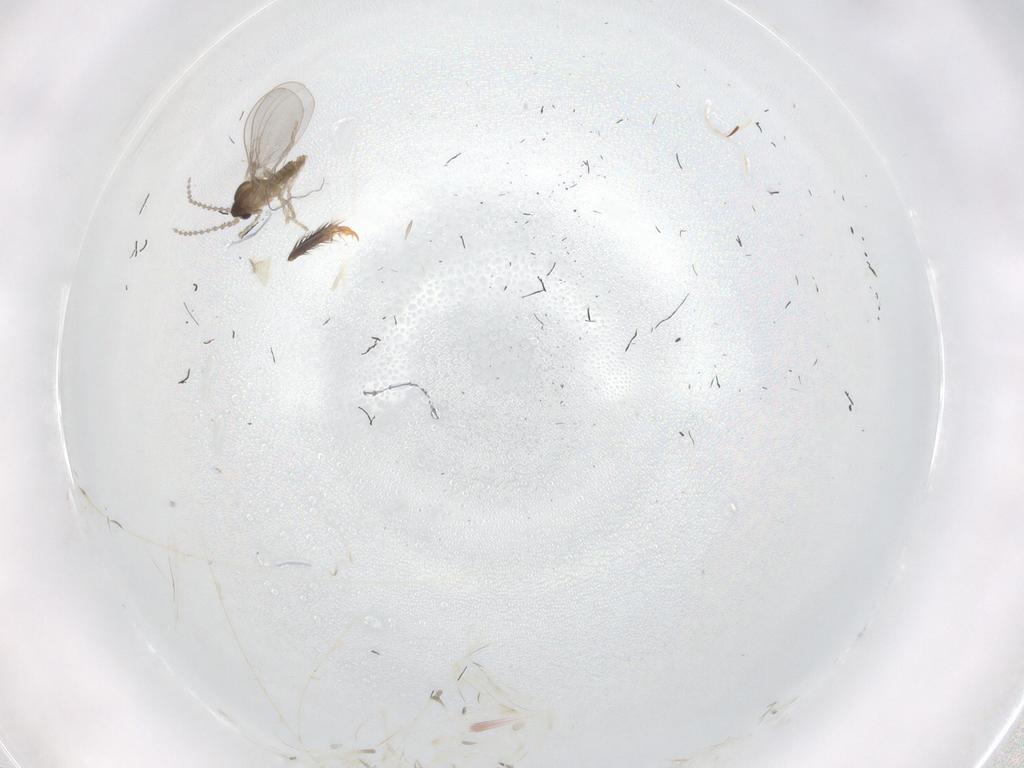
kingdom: Animalia
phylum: Arthropoda
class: Insecta
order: Diptera
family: Cecidomyiidae
